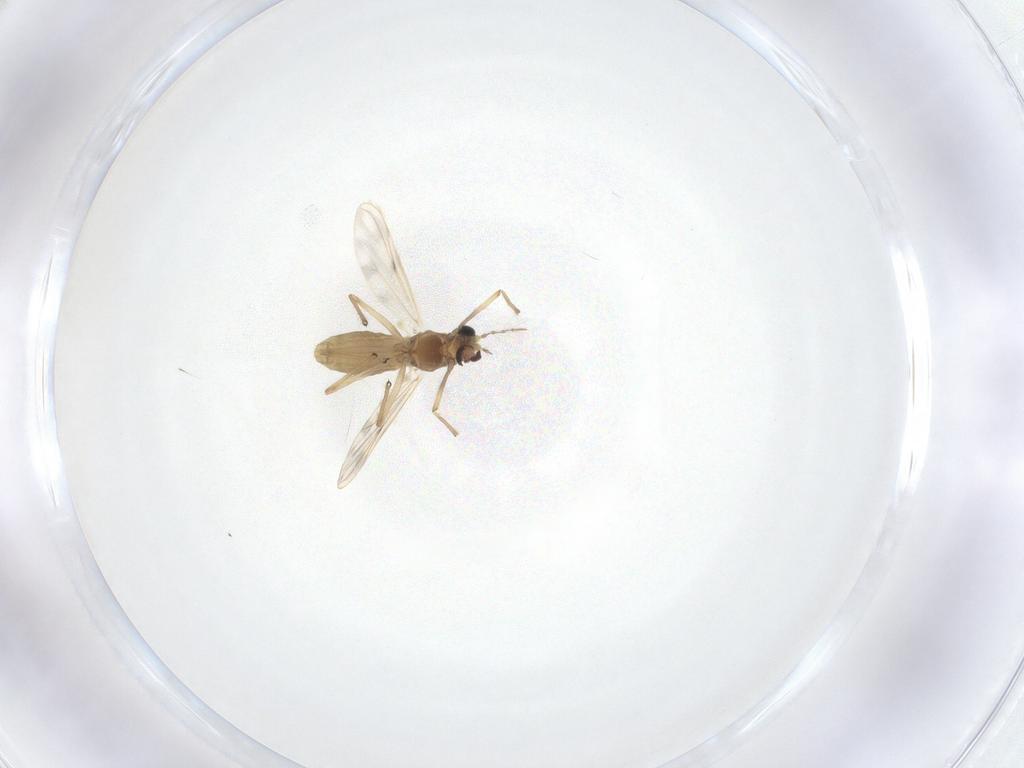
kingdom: Animalia
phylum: Arthropoda
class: Insecta
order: Diptera
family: Chironomidae
